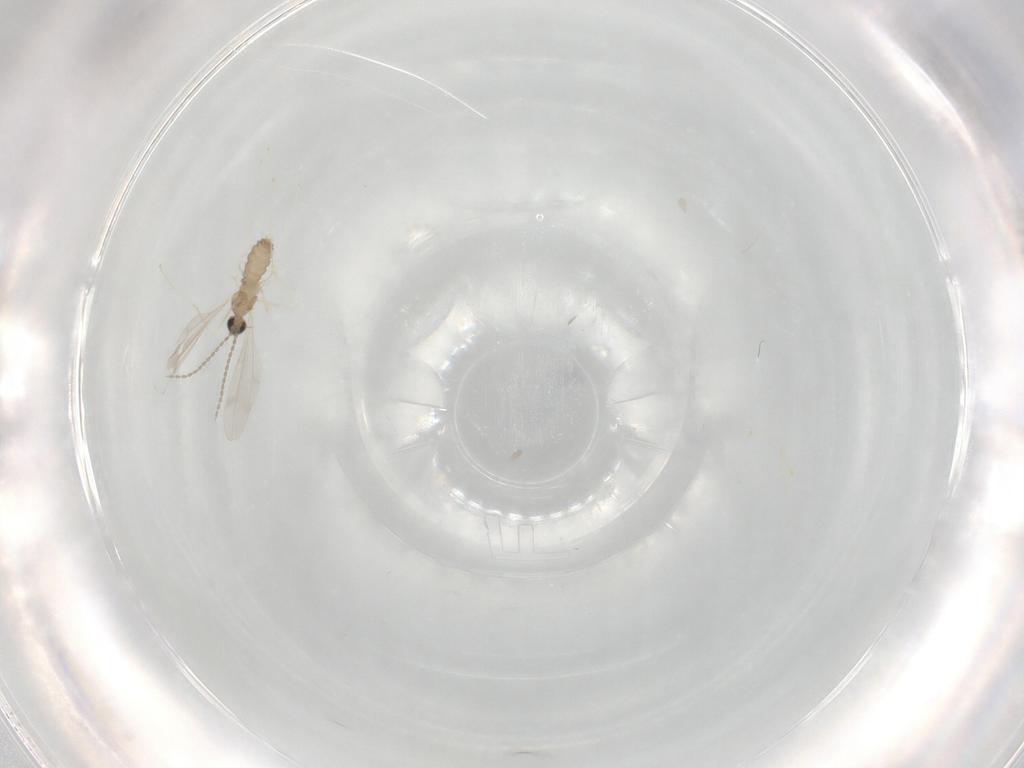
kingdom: Animalia
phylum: Arthropoda
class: Insecta
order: Diptera
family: Cecidomyiidae
